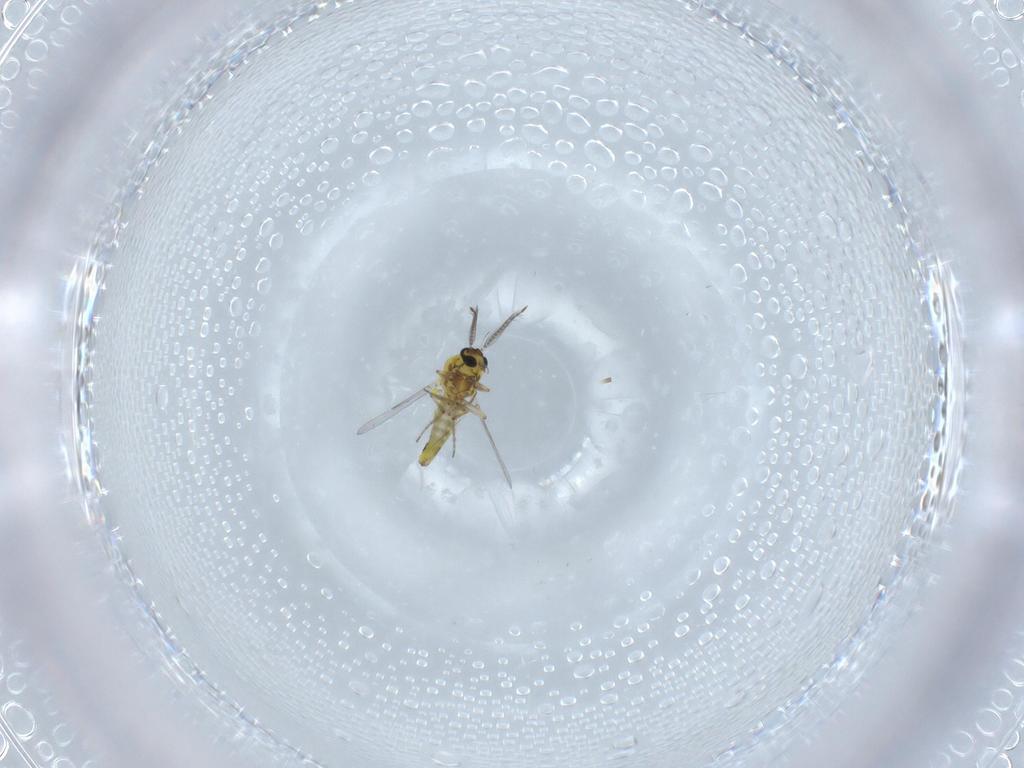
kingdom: Animalia
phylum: Arthropoda
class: Insecta
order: Diptera
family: Ceratopogonidae
